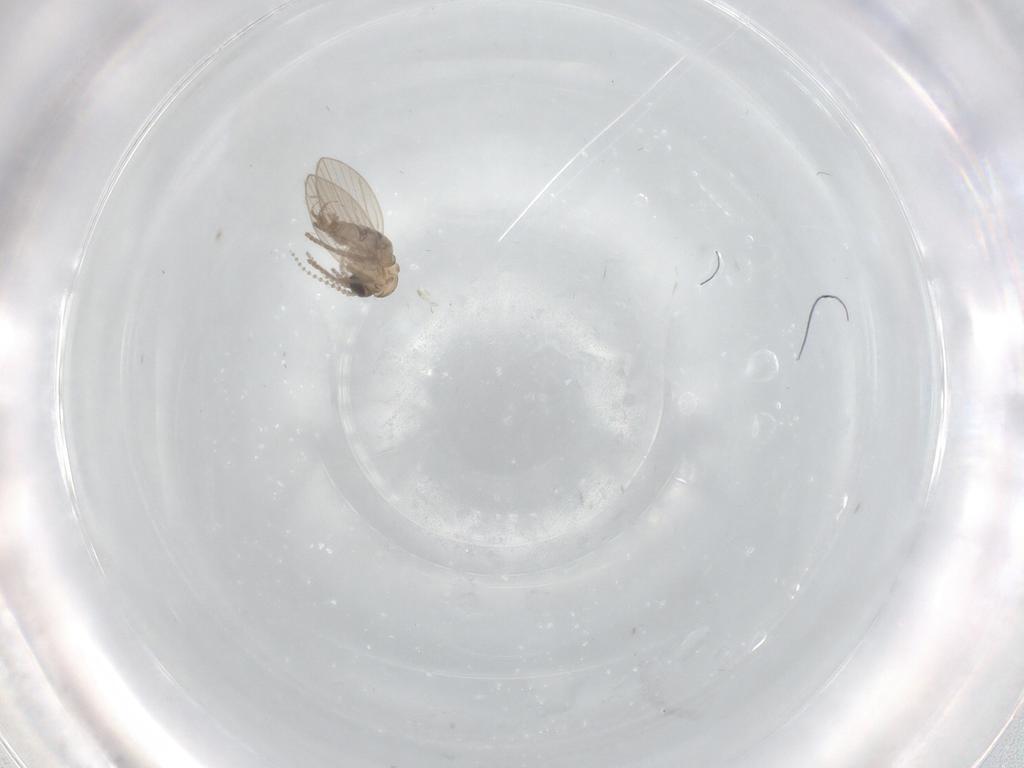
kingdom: Animalia
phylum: Arthropoda
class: Insecta
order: Diptera
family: Psychodidae
